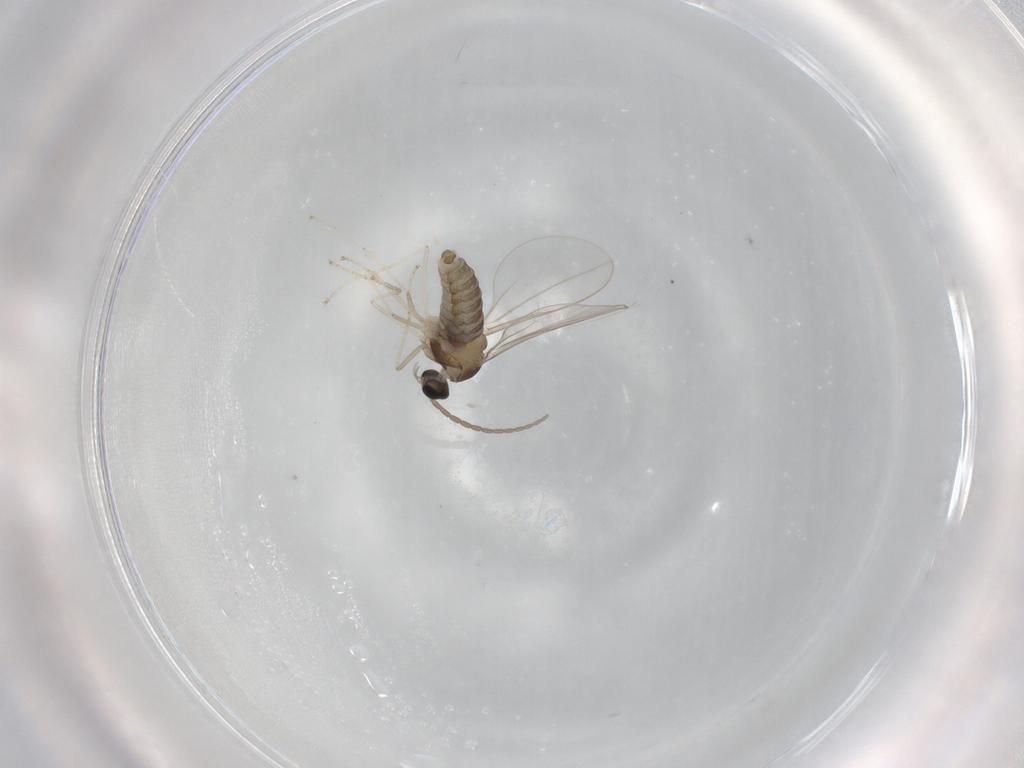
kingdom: Animalia
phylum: Arthropoda
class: Insecta
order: Diptera
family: Cecidomyiidae
